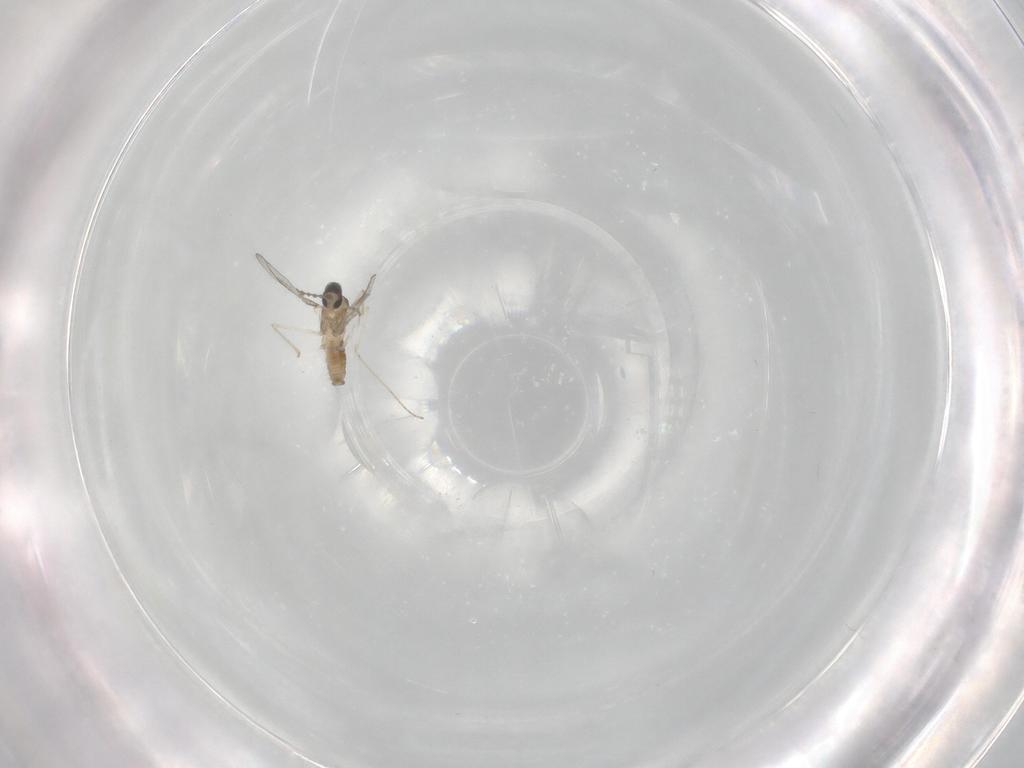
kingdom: Animalia
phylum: Arthropoda
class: Insecta
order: Diptera
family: Cecidomyiidae
